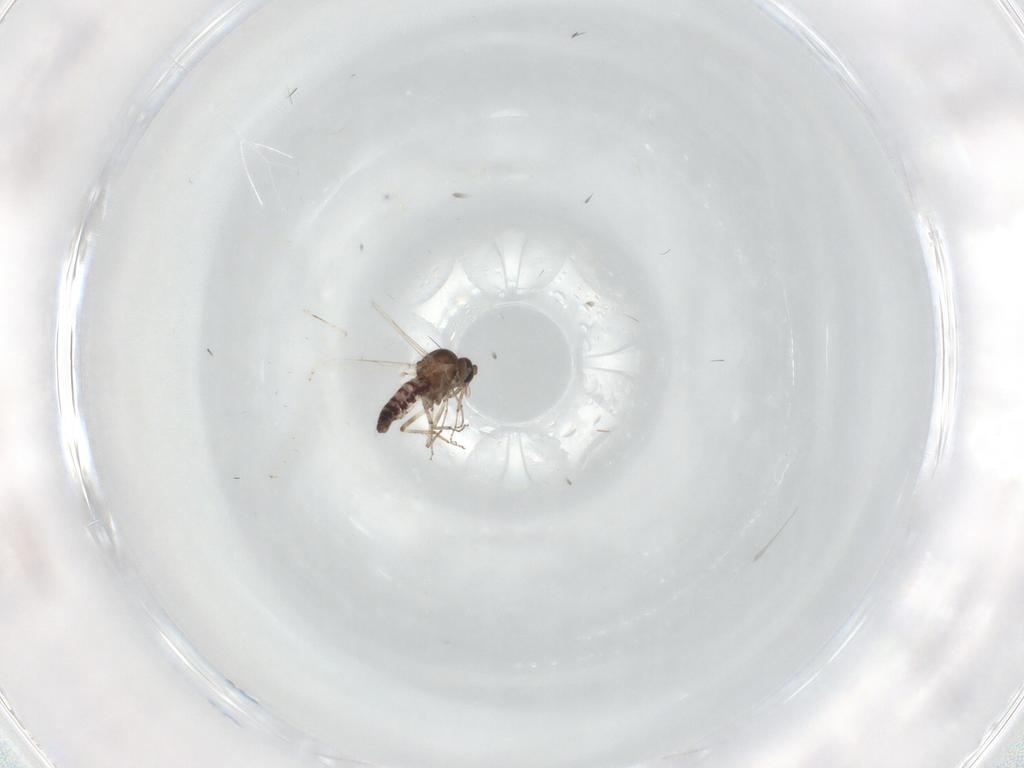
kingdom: Animalia
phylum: Arthropoda
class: Insecta
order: Diptera
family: Ceratopogonidae
